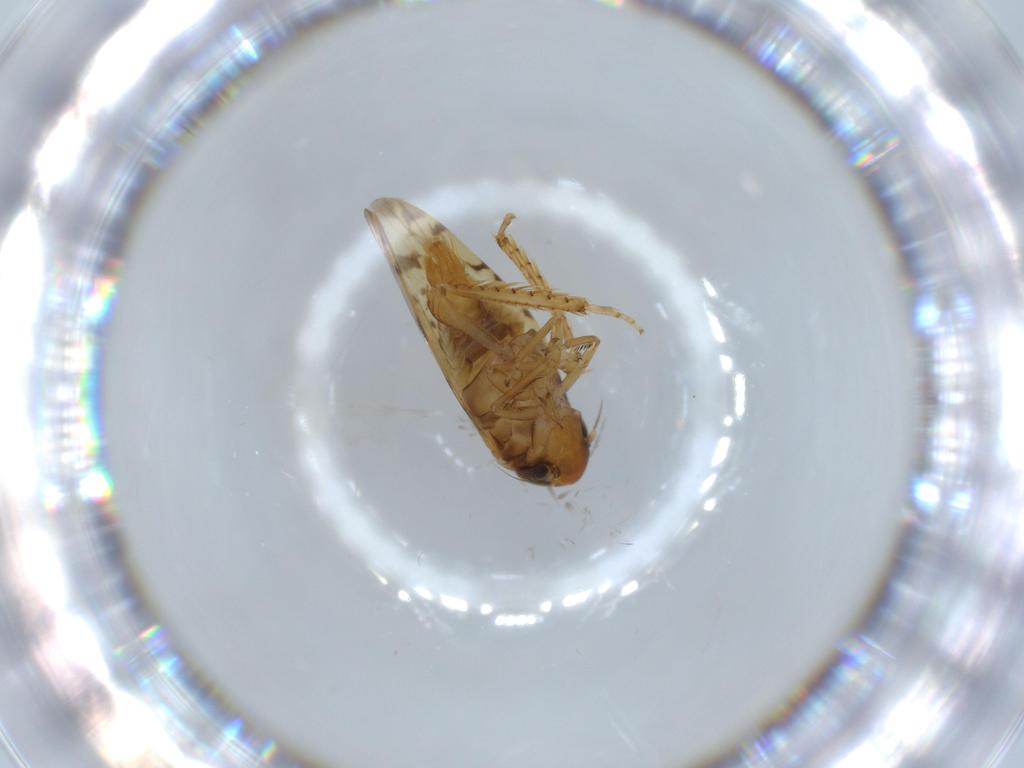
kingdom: Animalia
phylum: Arthropoda
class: Insecta
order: Hemiptera
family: Cicadellidae
